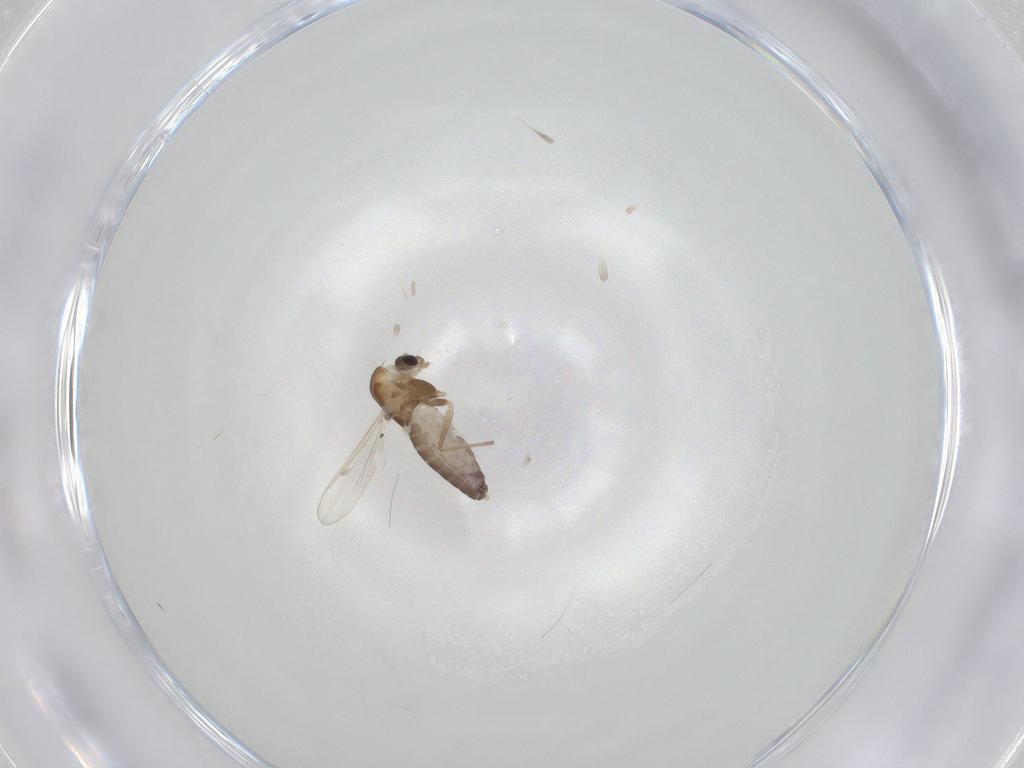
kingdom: Animalia
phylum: Arthropoda
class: Insecta
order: Diptera
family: Chironomidae
